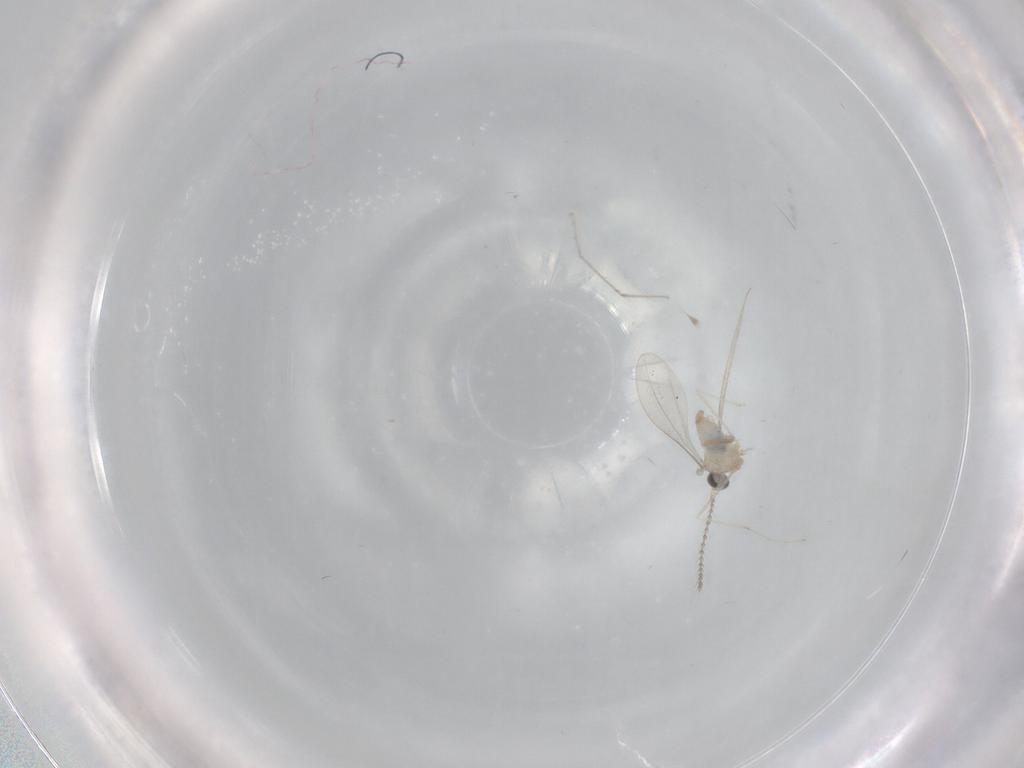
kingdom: Animalia
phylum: Arthropoda
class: Insecta
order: Diptera
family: Cecidomyiidae
